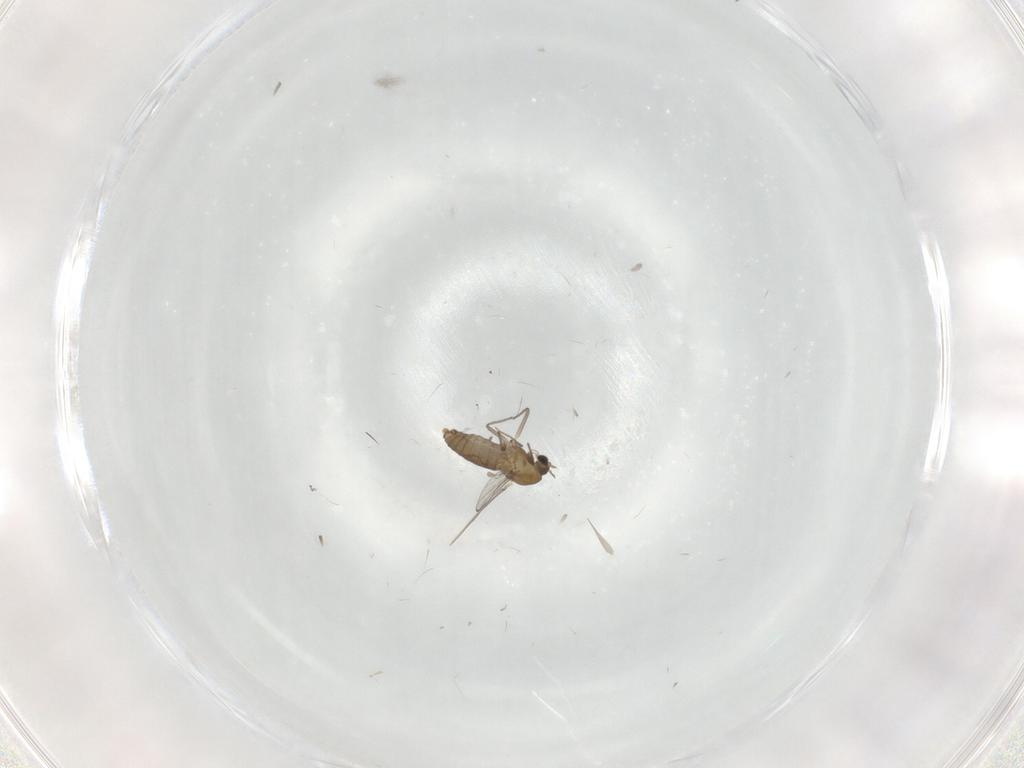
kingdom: Animalia
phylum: Arthropoda
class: Insecta
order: Diptera
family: Chironomidae
